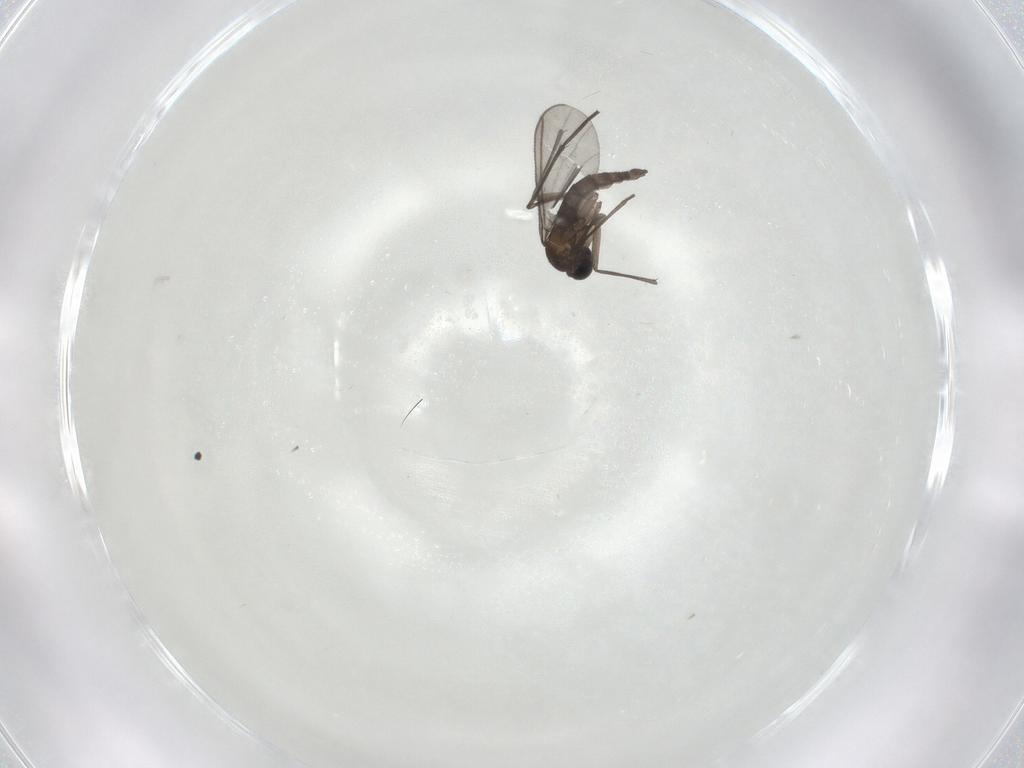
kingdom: Animalia
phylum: Arthropoda
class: Insecta
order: Diptera
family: Sciaridae
